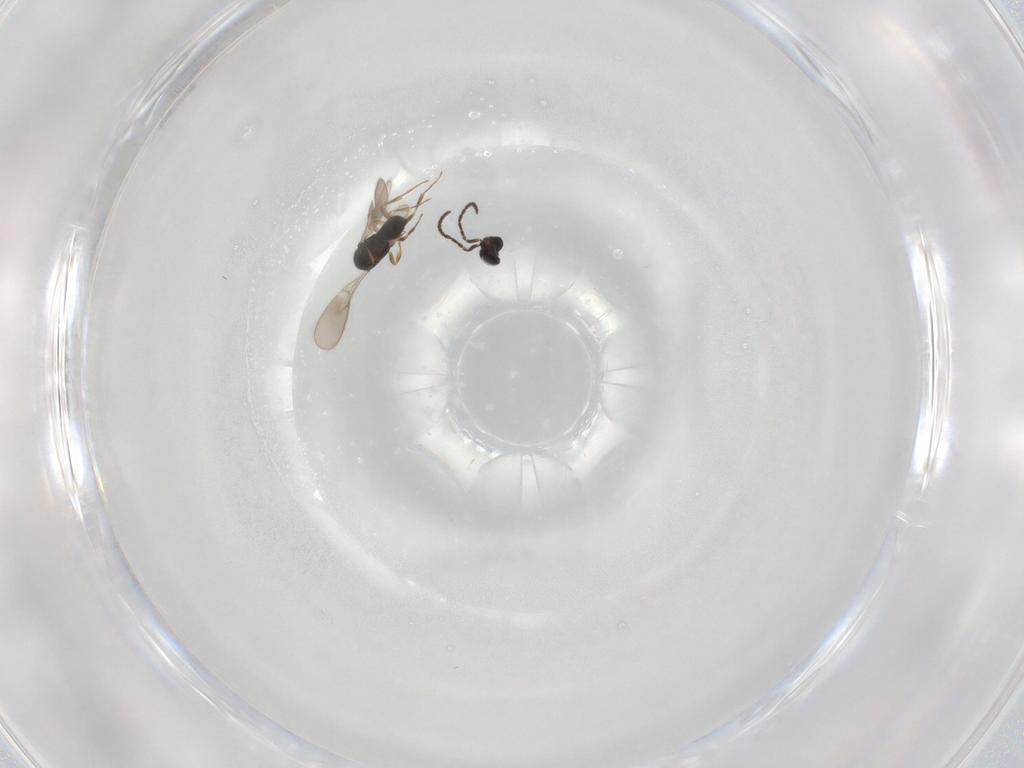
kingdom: Animalia
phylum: Arthropoda
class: Insecta
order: Hymenoptera
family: Scelionidae
